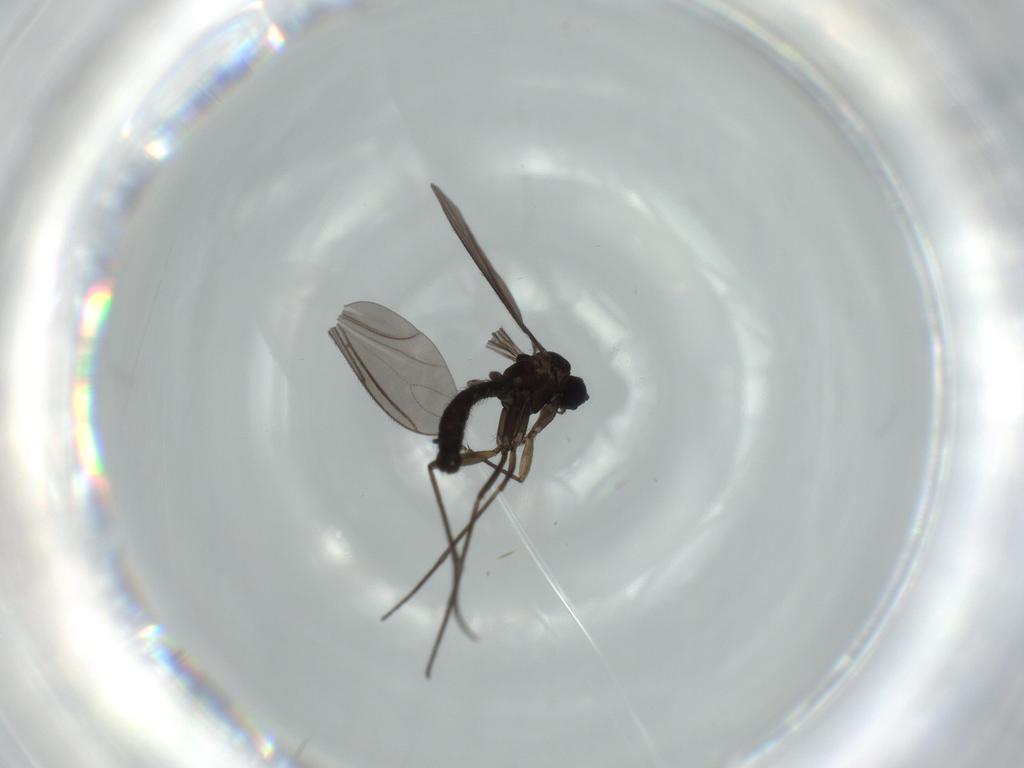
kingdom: Animalia
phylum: Arthropoda
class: Insecta
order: Diptera
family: Sciaridae
